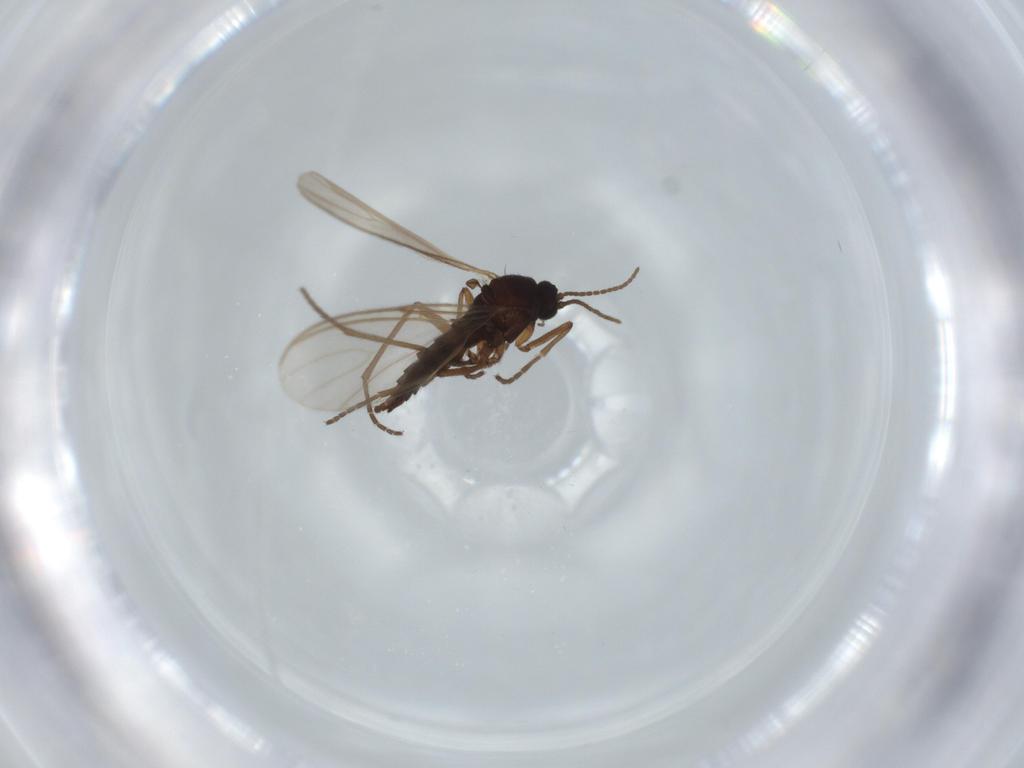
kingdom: Animalia
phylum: Arthropoda
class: Insecta
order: Diptera
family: Sciaridae
